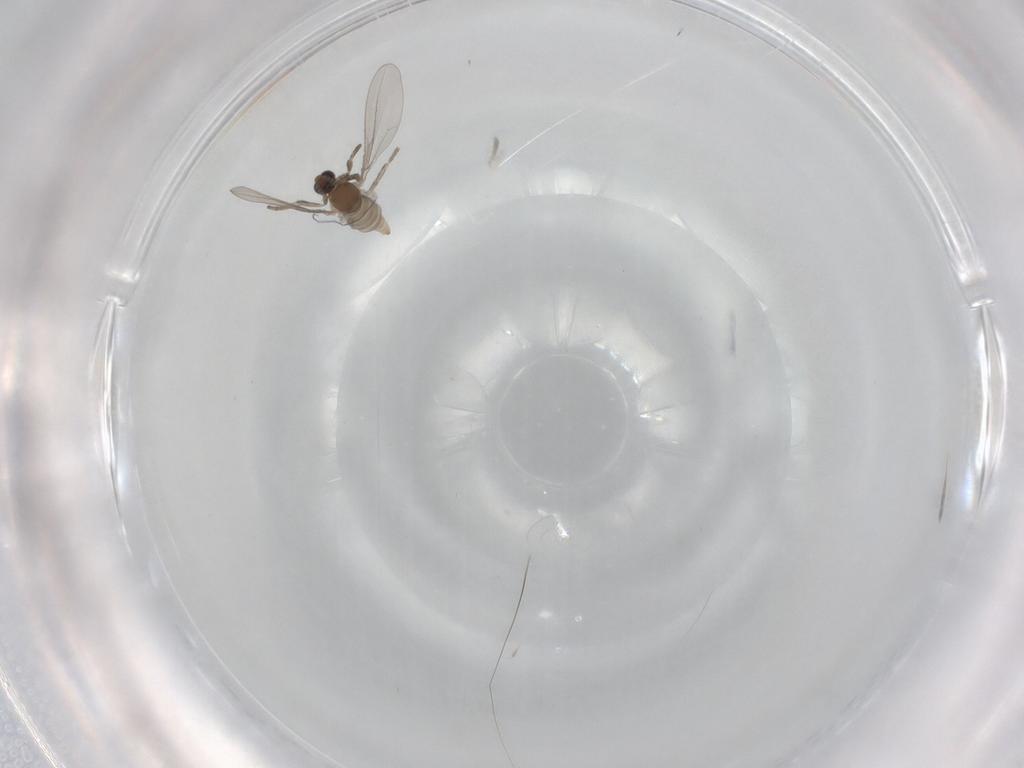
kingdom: Animalia
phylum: Arthropoda
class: Insecta
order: Diptera
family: Cecidomyiidae
